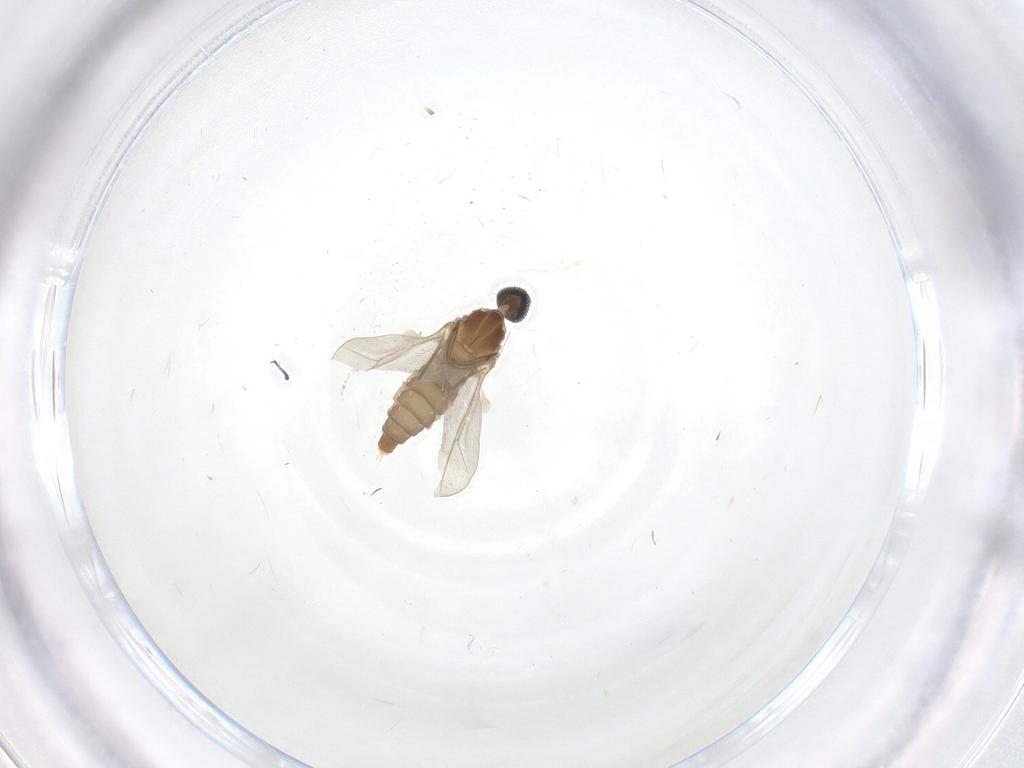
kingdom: Animalia
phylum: Arthropoda
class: Insecta
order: Diptera
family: Cecidomyiidae
